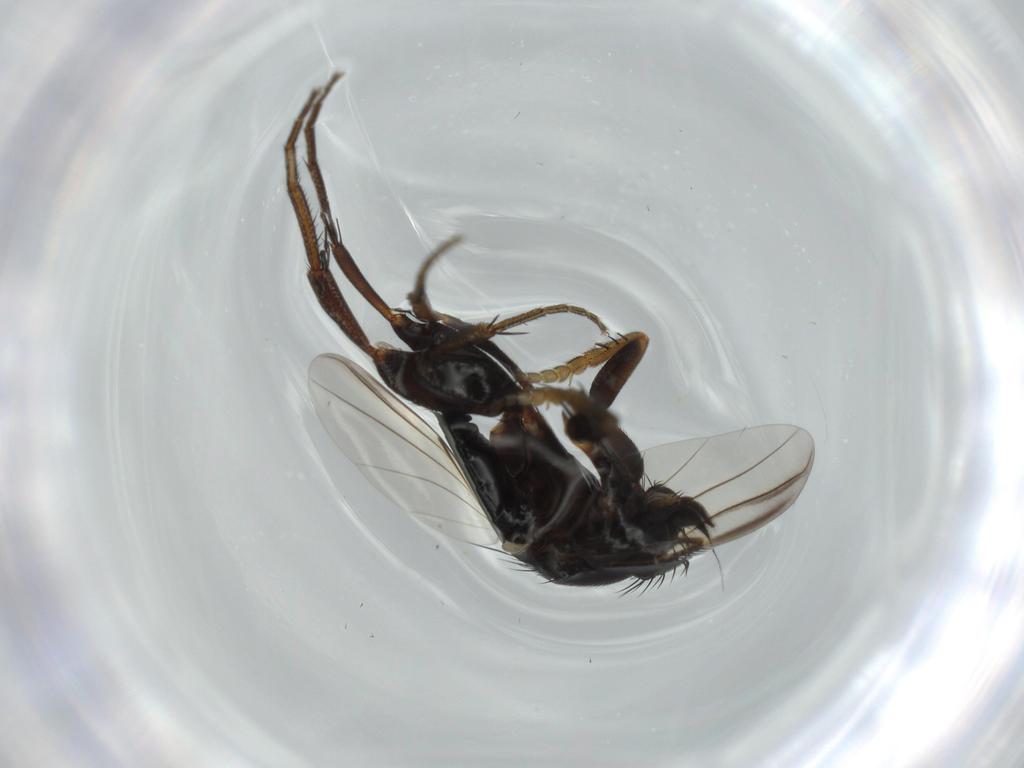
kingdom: Animalia
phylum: Arthropoda
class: Insecta
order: Diptera
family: Phoridae
